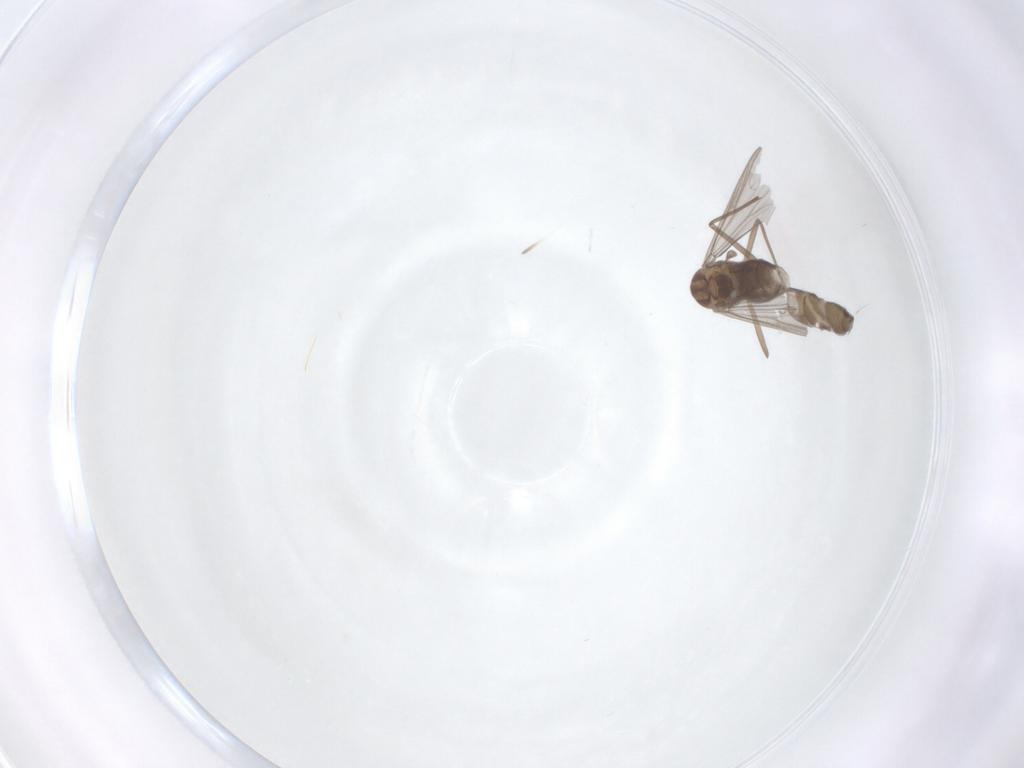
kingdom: Animalia
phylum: Arthropoda
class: Insecta
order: Diptera
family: Chironomidae
